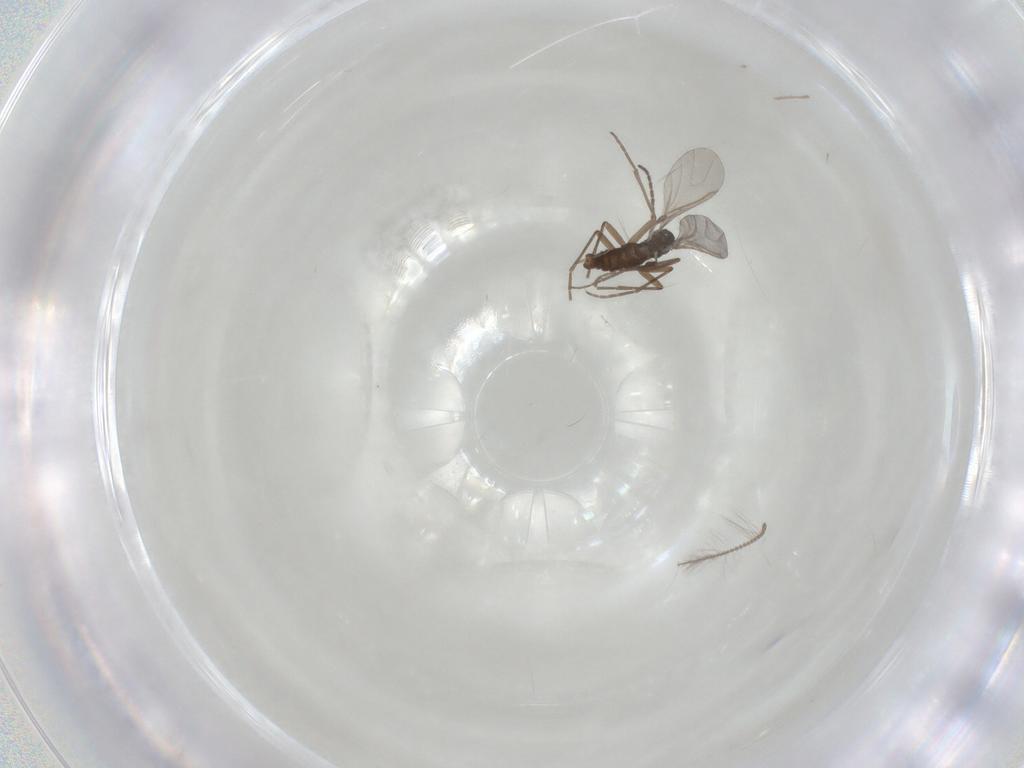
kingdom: Animalia
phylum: Arthropoda
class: Insecta
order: Diptera
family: Sciaridae
